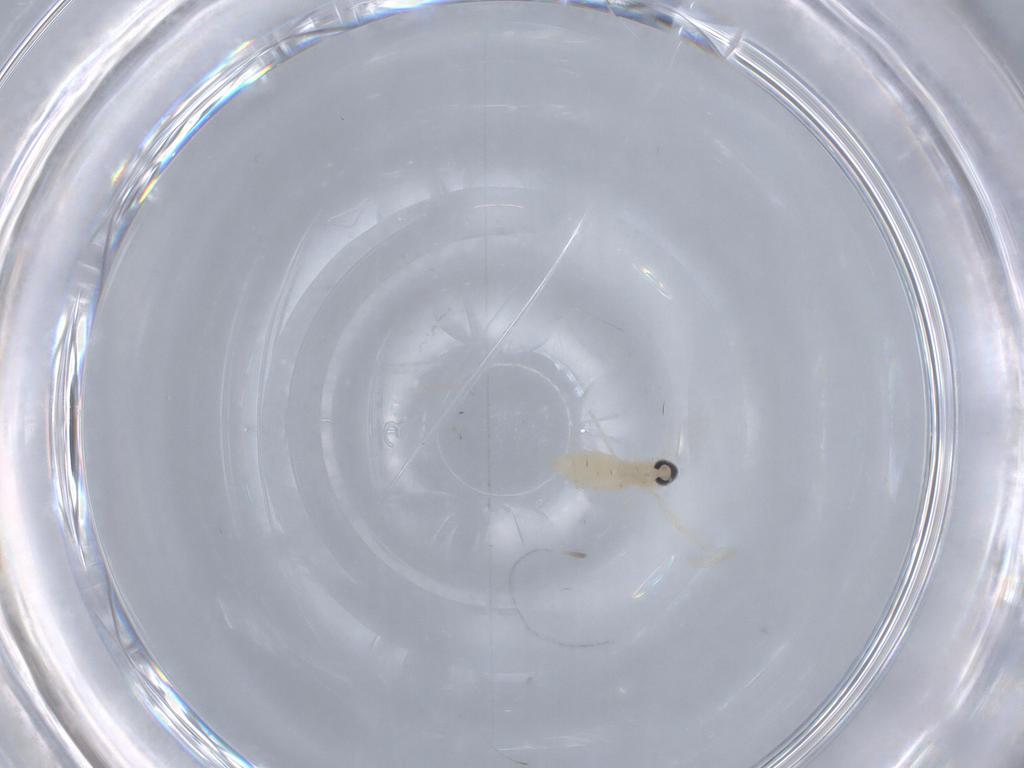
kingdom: Animalia
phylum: Arthropoda
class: Insecta
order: Diptera
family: Cecidomyiidae
